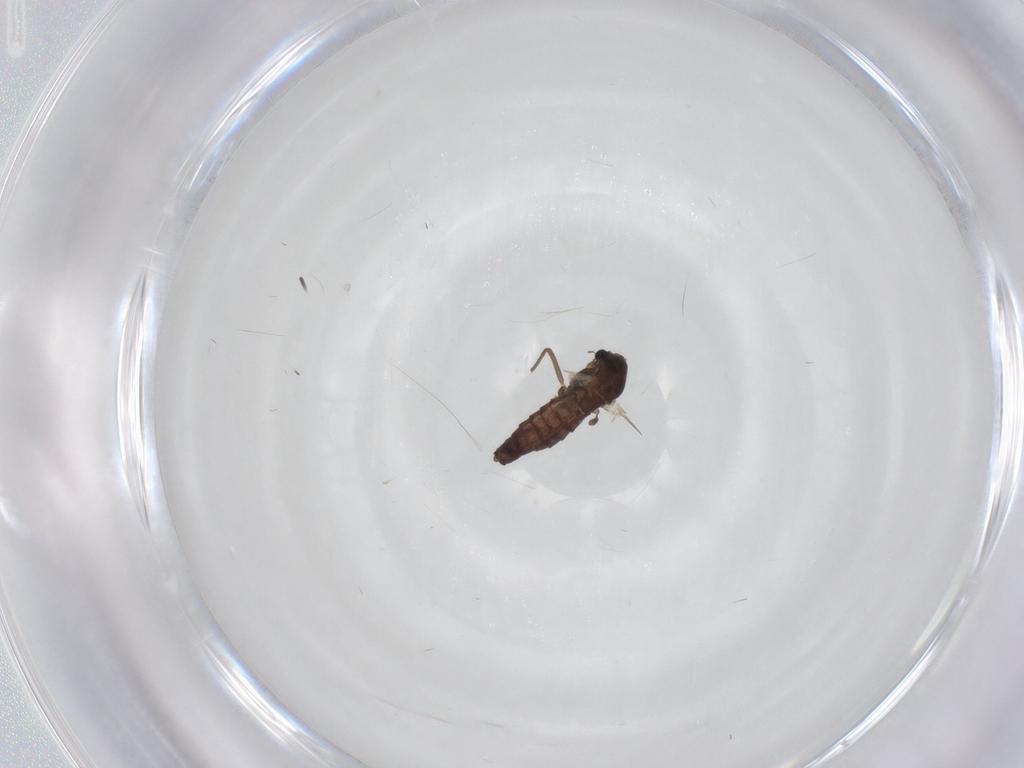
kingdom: Animalia
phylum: Arthropoda
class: Insecta
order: Diptera
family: Chironomidae
